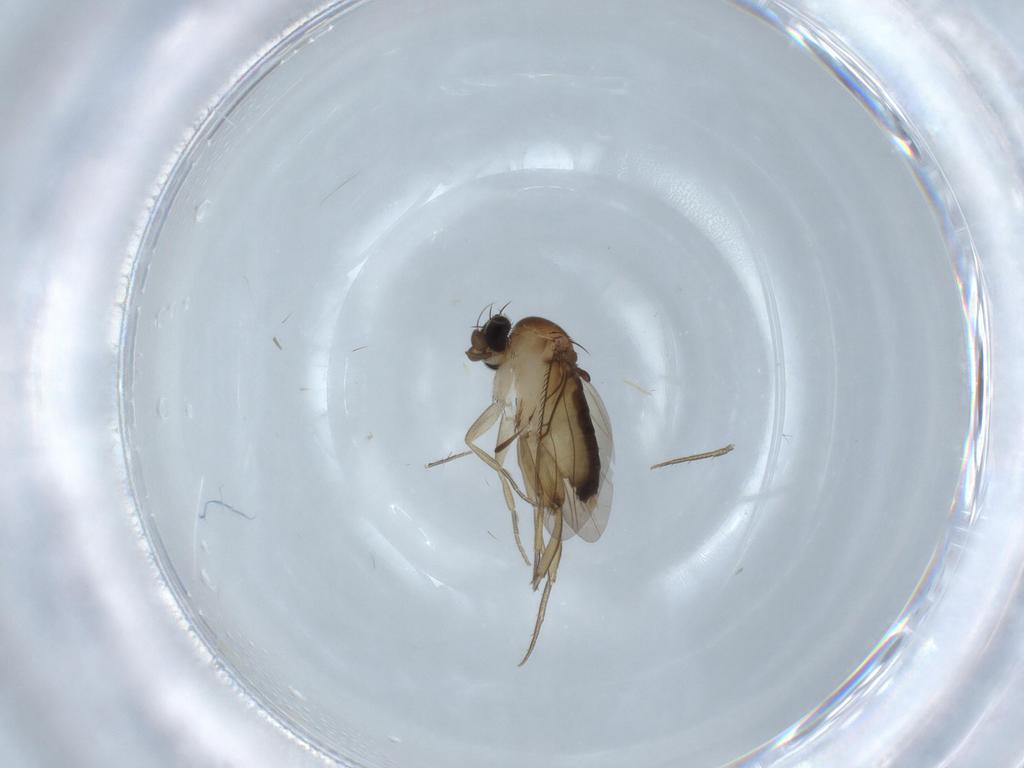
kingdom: Animalia
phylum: Arthropoda
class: Insecta
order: Diptera
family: Phoridae
